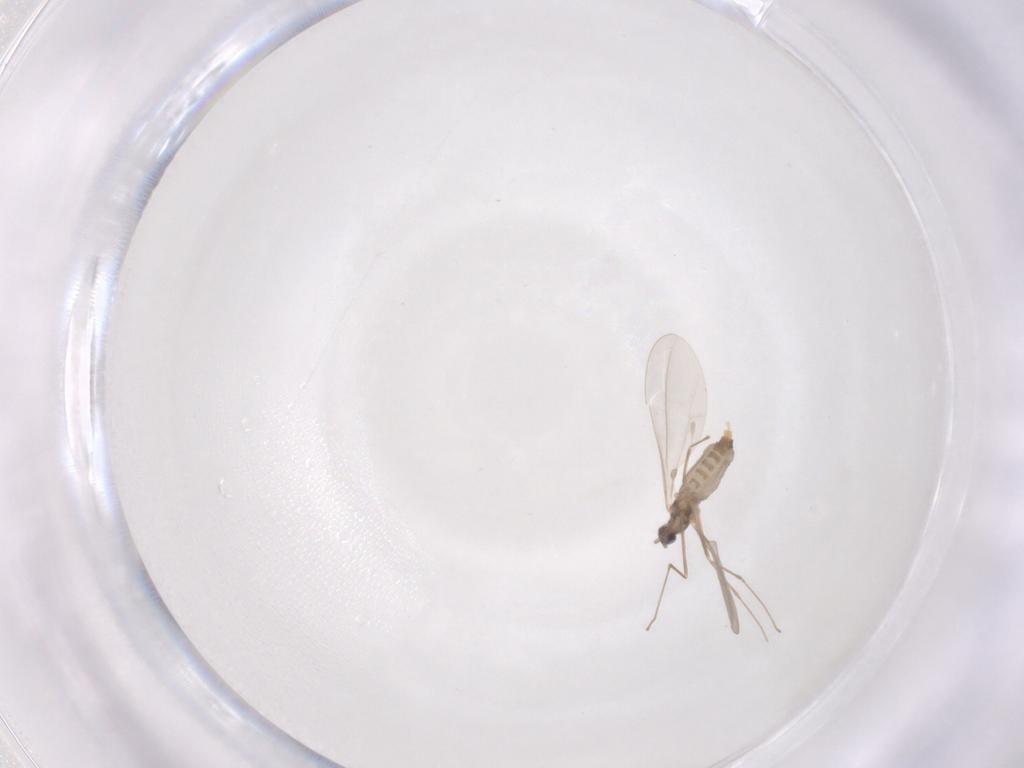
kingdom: Animalia
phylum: Arthropoda
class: Insecta
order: Diptera
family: Cecidomyiidae
